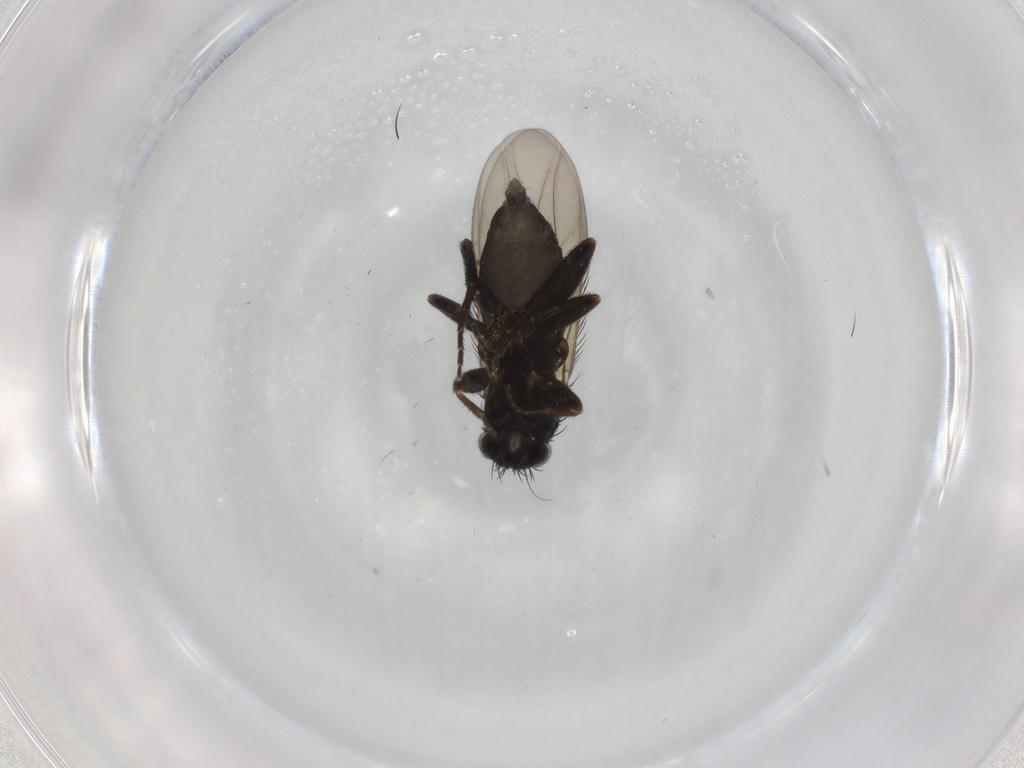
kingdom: Animalia
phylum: Arthropoda
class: Insecta
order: Diptera
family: Phoridae
